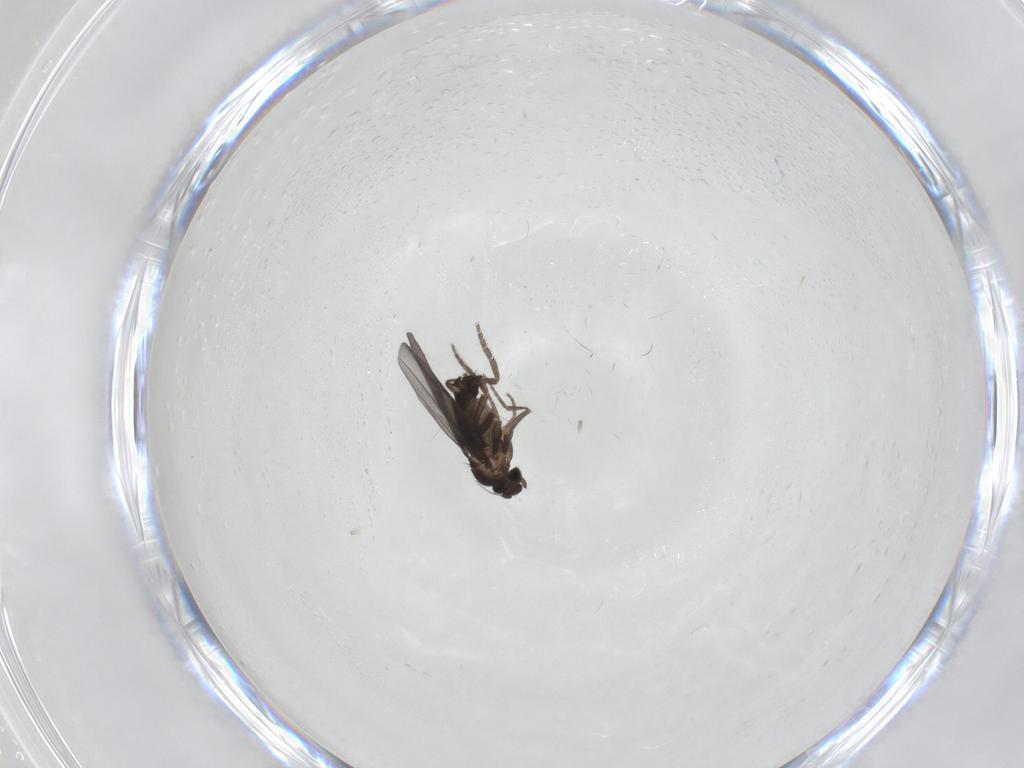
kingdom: Animalia
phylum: Arthropoda
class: Insecta
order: Diptera
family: Phoridae
